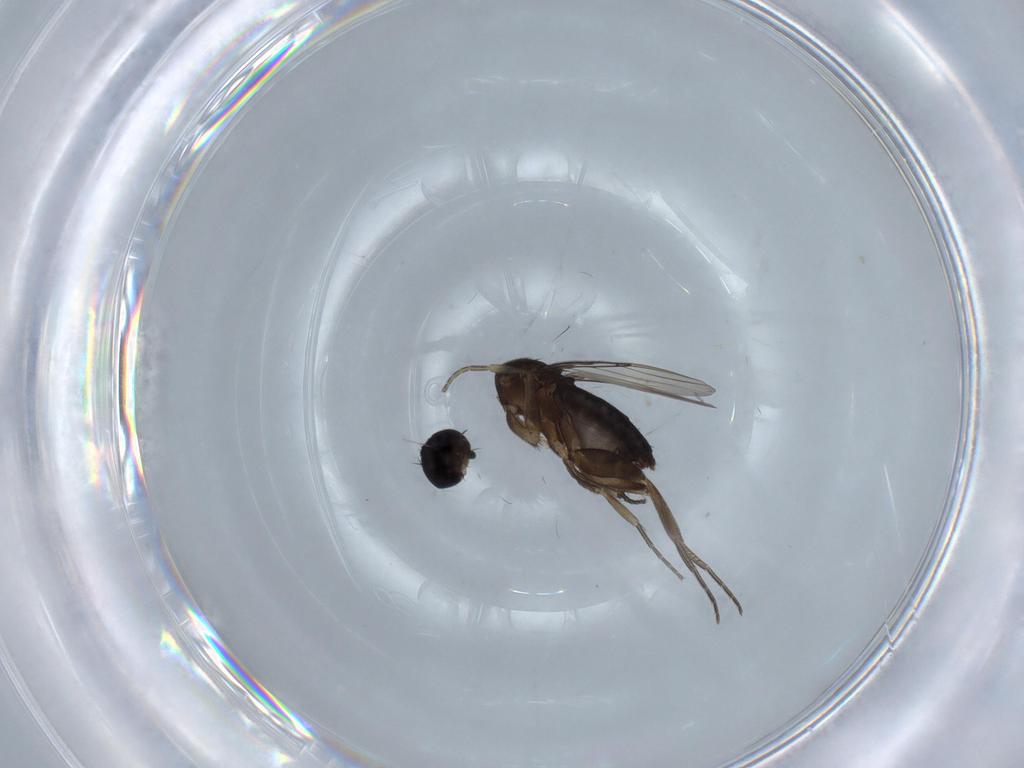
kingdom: Animalia
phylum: Arthropoda
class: Insecta
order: Diptera
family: Phoridae
